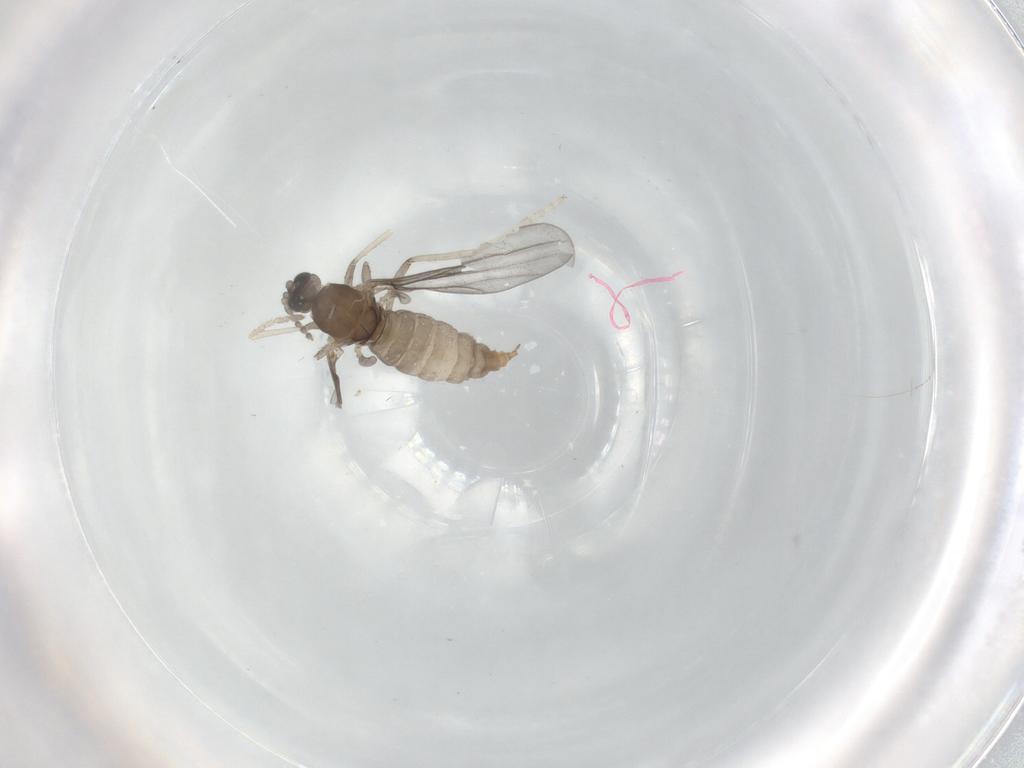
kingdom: Animalia
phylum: Arthropoda
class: Insecta
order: Diptera
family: Cecidomyiidae
